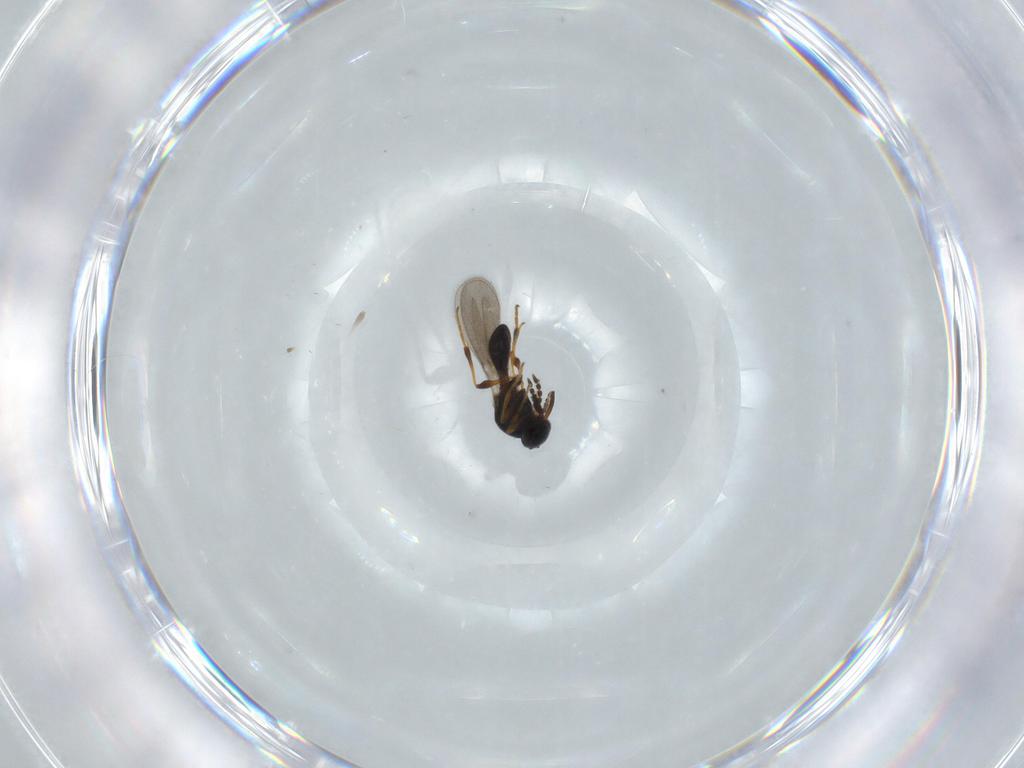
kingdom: Animalia
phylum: Arthropoda
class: Insecta
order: Hymenoptera
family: Platygastridae
